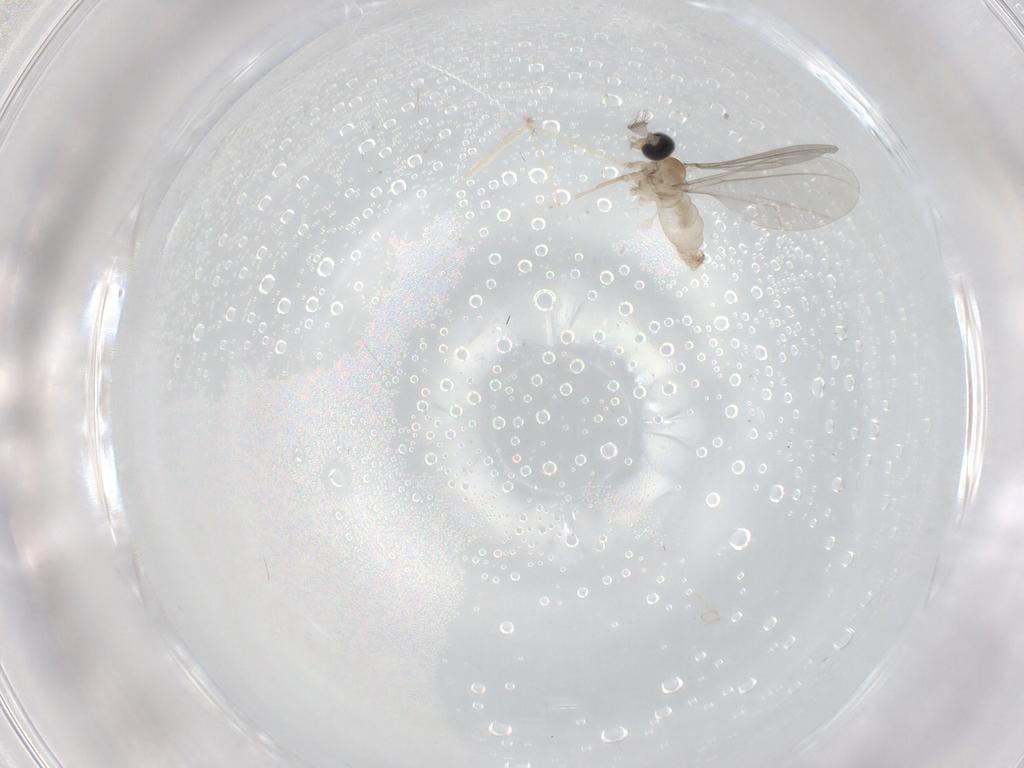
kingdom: Animalia
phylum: Arthropoda
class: Insecta
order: Diptera
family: Cecidomyiidae
